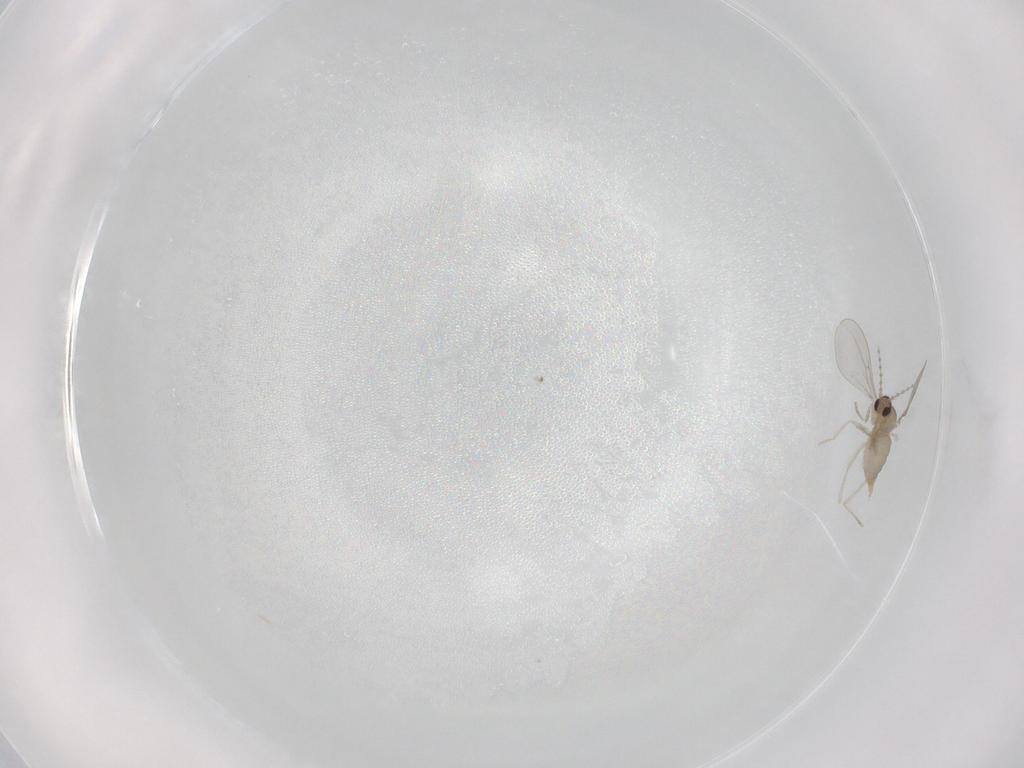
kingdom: Animalia
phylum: Arthropoda
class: Insecta
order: Diptera
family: Cecidomyiidae
